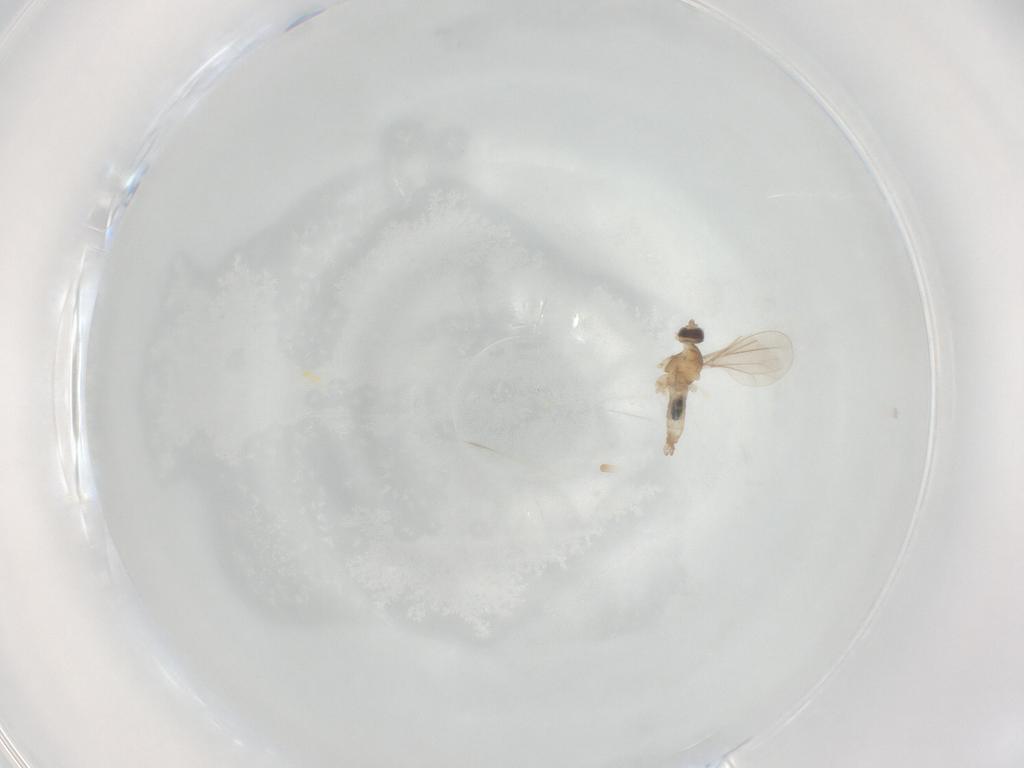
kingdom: Animalia
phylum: Arthropoda
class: Insecta
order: Diptera
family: Cecidomyiidae
